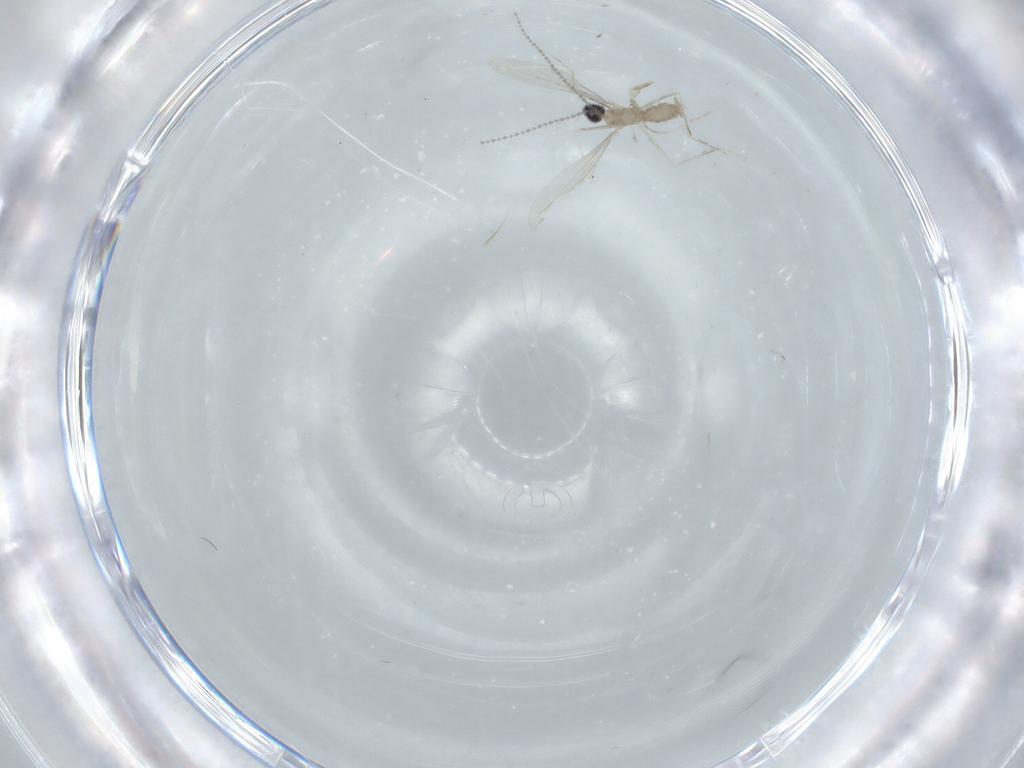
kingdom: Animalia
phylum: Arthropoda
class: Insecta
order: Diptera
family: Cecidomyiidae
